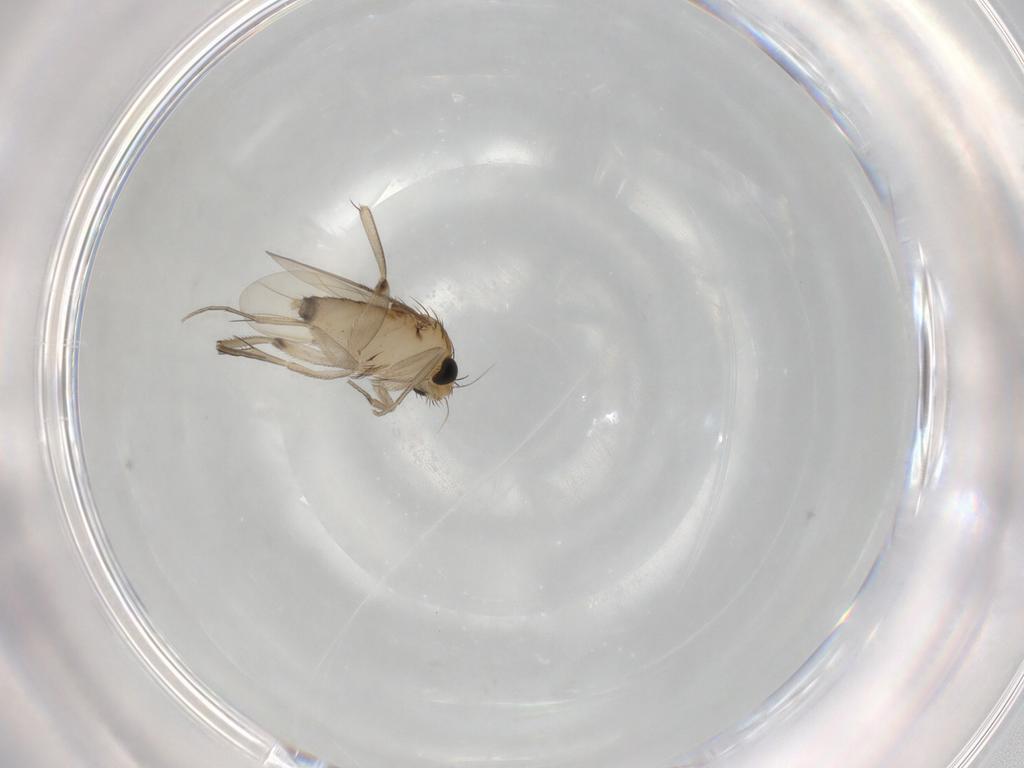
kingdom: Animalia
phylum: Arthropoda
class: Insecta
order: Diptera
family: Phoridae
